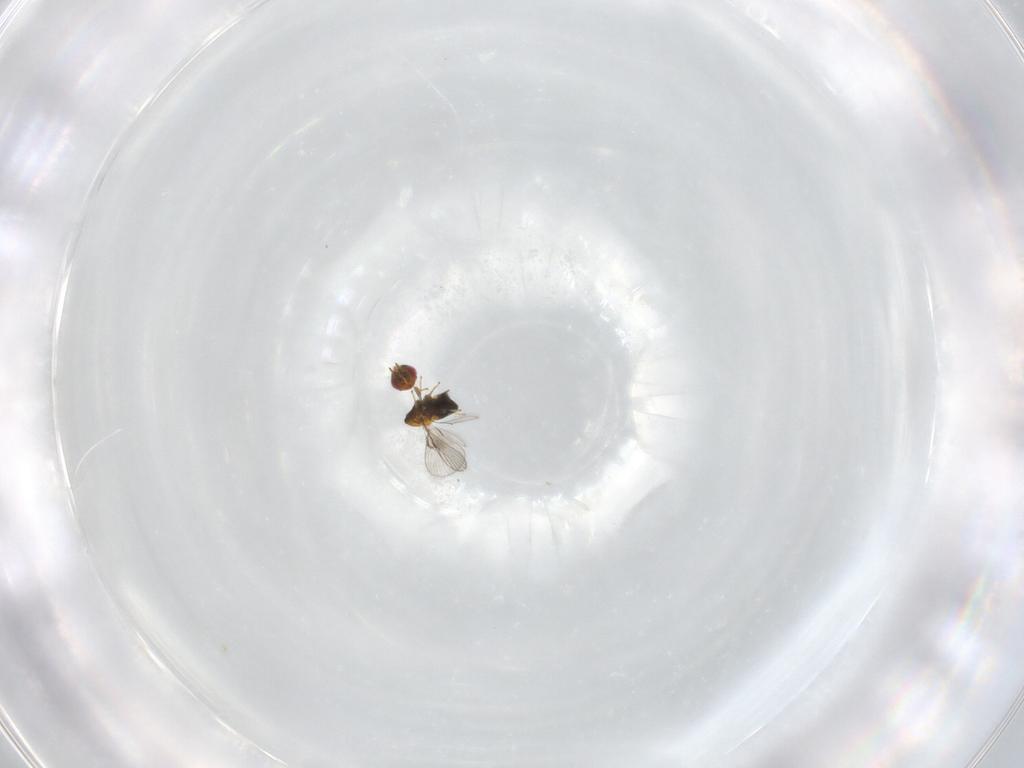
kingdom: Animalia
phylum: Arthropoda
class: Insecta
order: Hymenoptera
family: Trichogrammatidae
